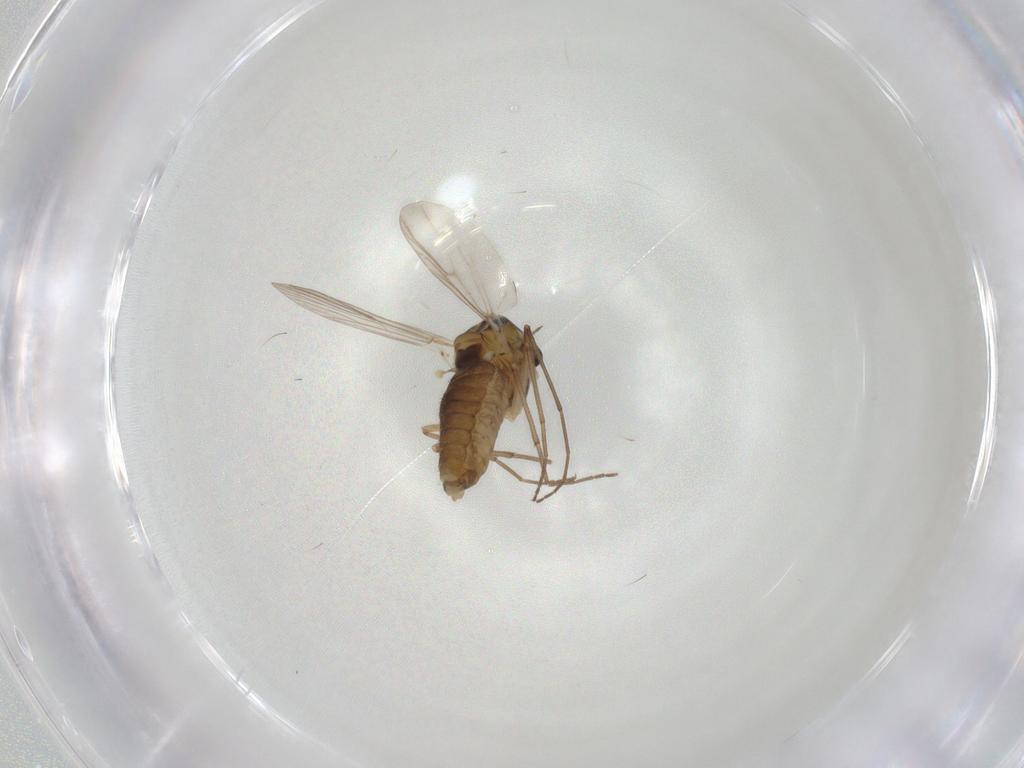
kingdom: Animalia
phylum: Arthropoda
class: Insecta
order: Diptera
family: Chironomidae
